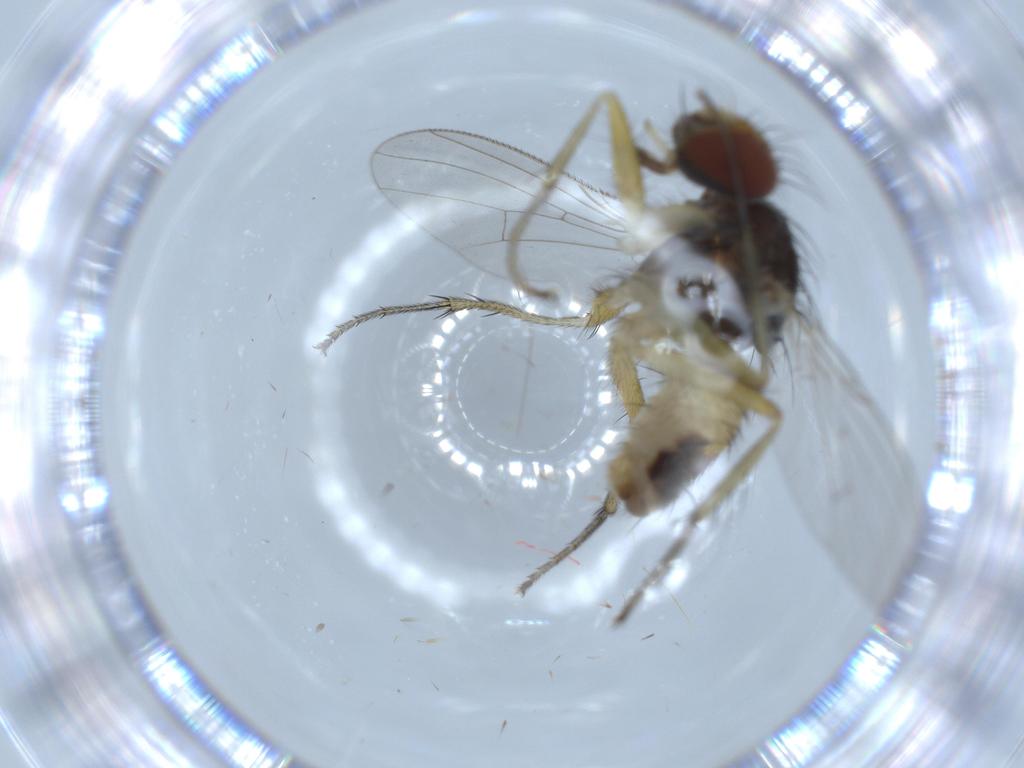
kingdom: Animalia
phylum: Arthropoda
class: Insecta
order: Diptera
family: Muscidae
